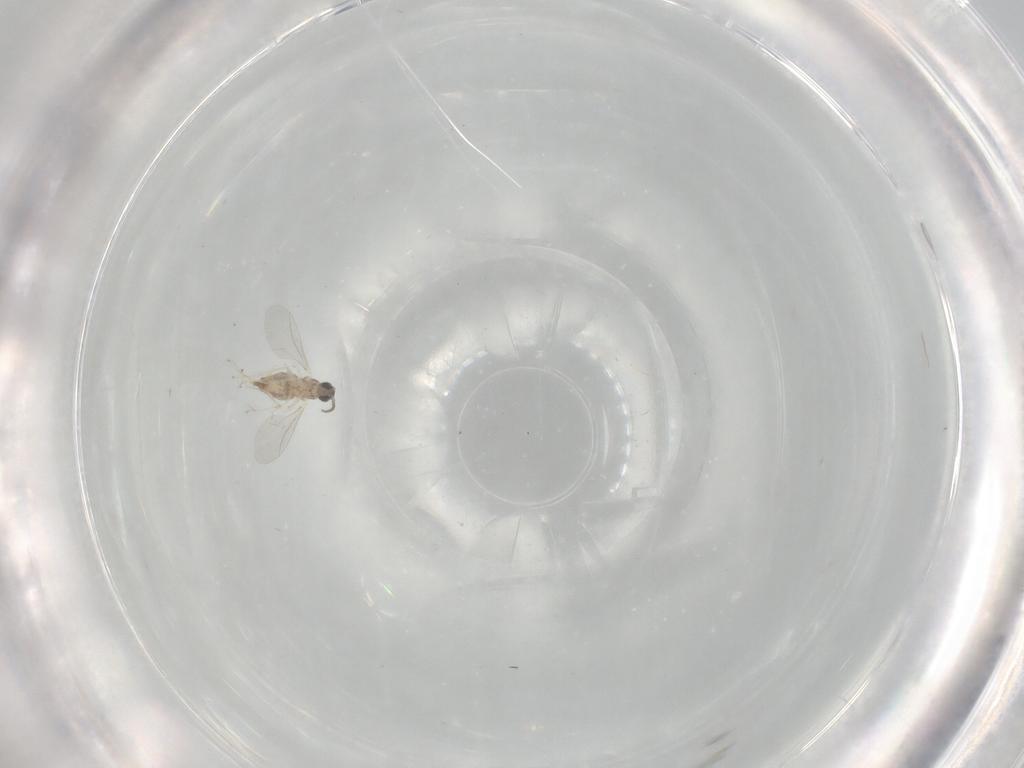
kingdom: Animalia
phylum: Arthropoda
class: Insecta
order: Diptera
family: Cecidomyiidae
